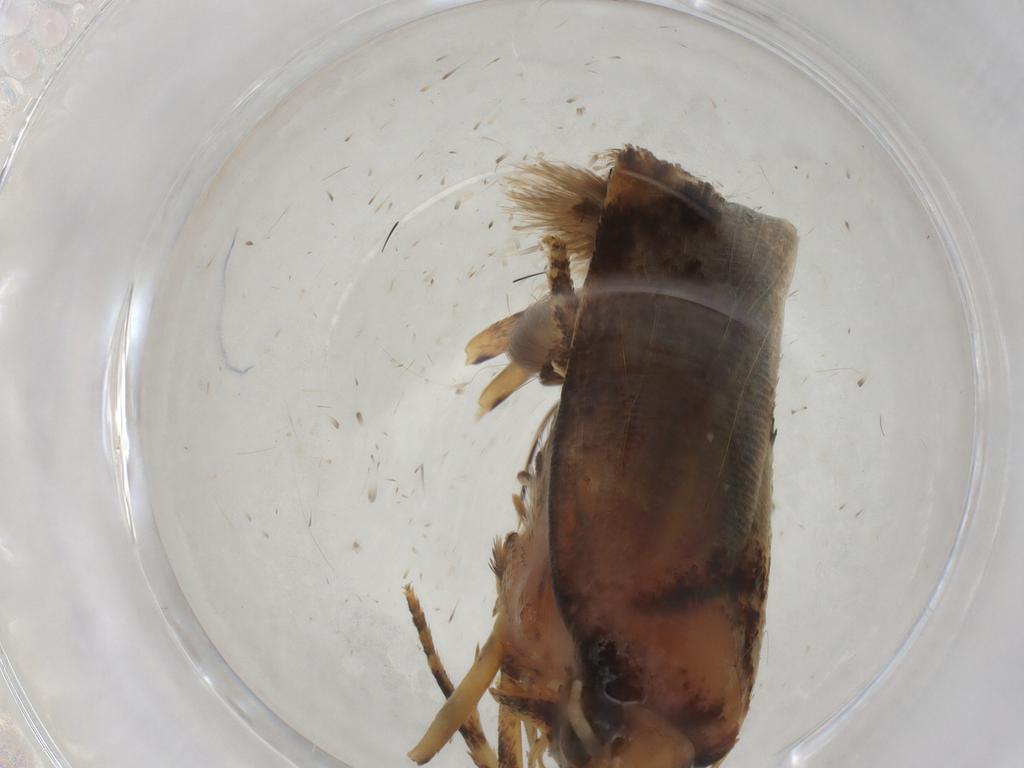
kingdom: Animalia
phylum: Arthropoda
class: Insecta
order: Lepidoptera
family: Gelechiidae
